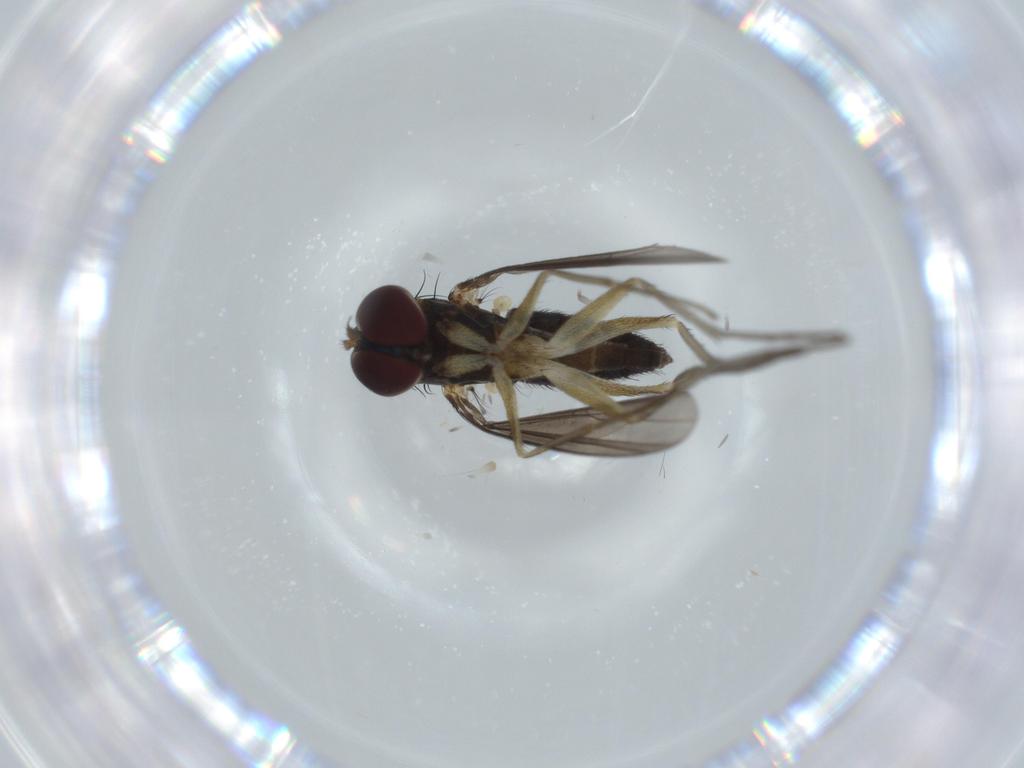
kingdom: Animalia
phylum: Arthropoda
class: Insecta
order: Diptera
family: Dolichopodidae
